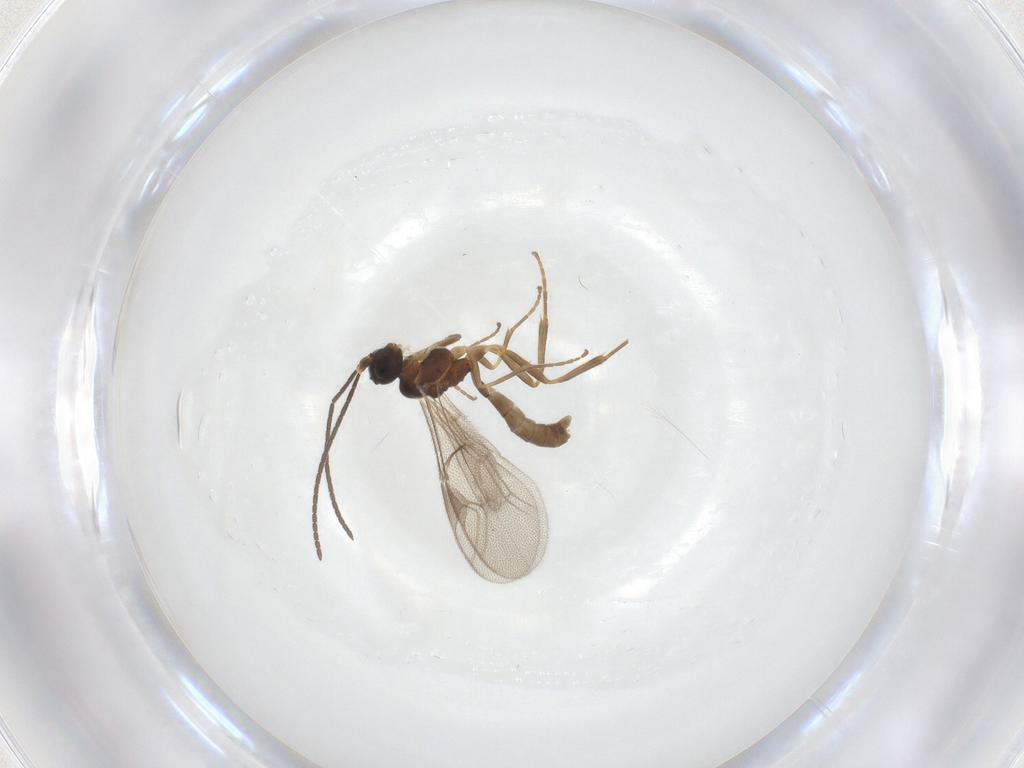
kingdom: Animalia
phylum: Arthropoda
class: Insecta
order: Hymenoptera
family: Ichneumonidae
